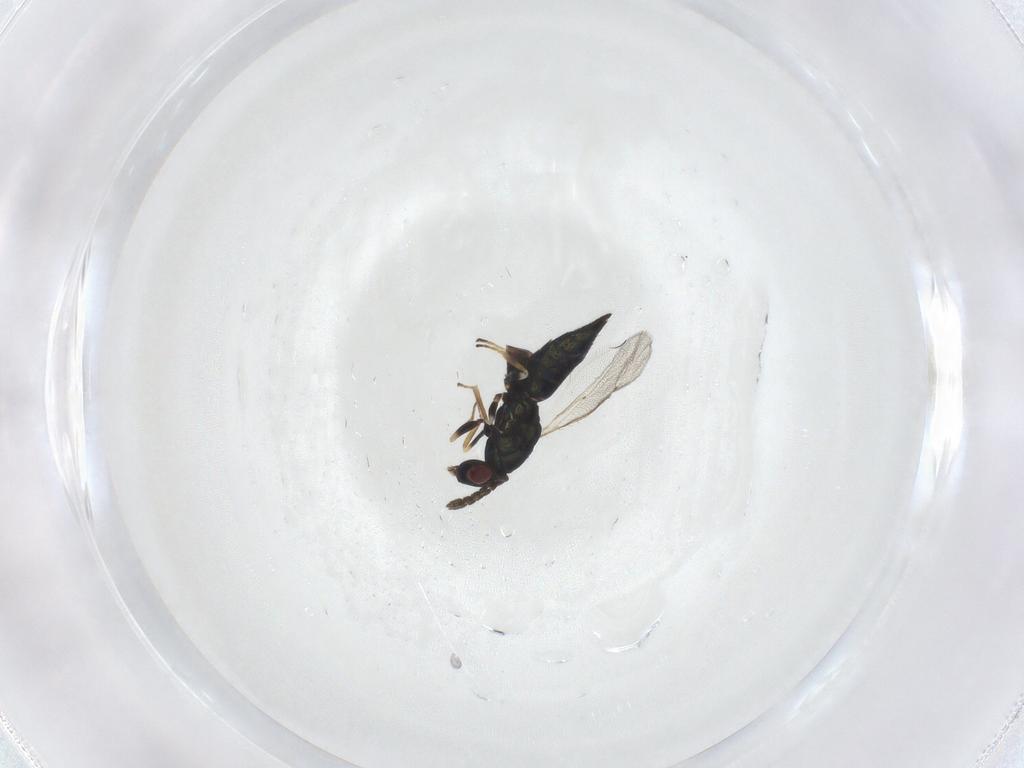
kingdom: Animalia
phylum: Arthropoda
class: Insecta
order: Hymenoptera
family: Eulophidae
